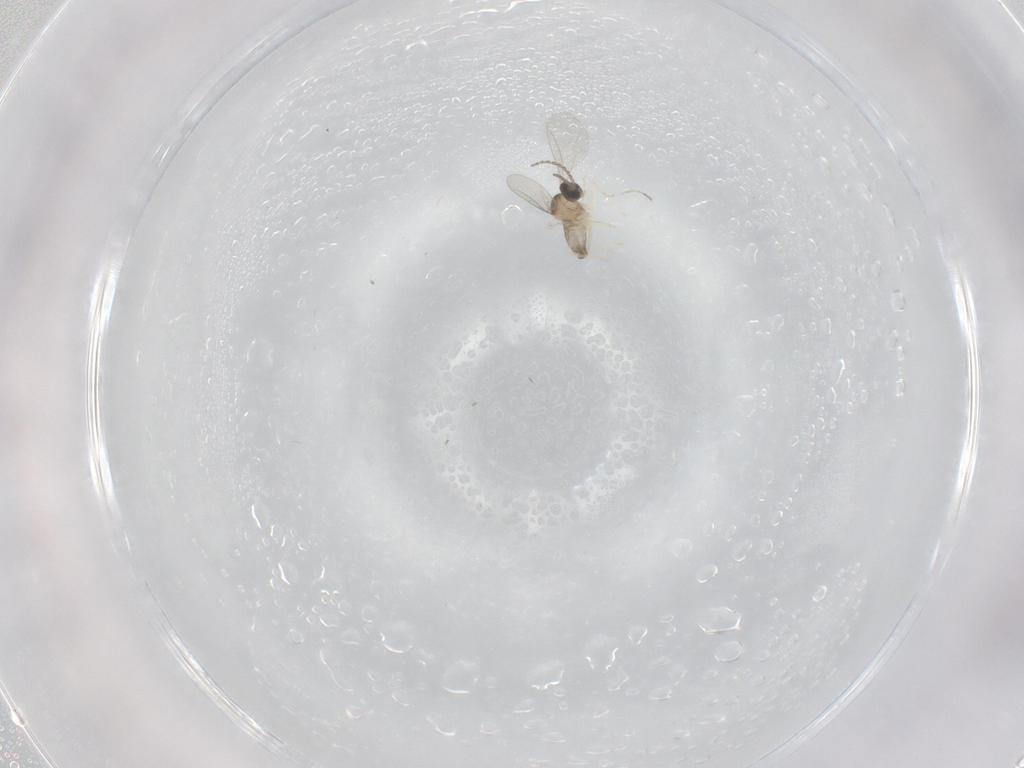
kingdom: Animalia
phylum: Arthropoda
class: Insecta
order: Diptera
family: Cecidomyiidae
